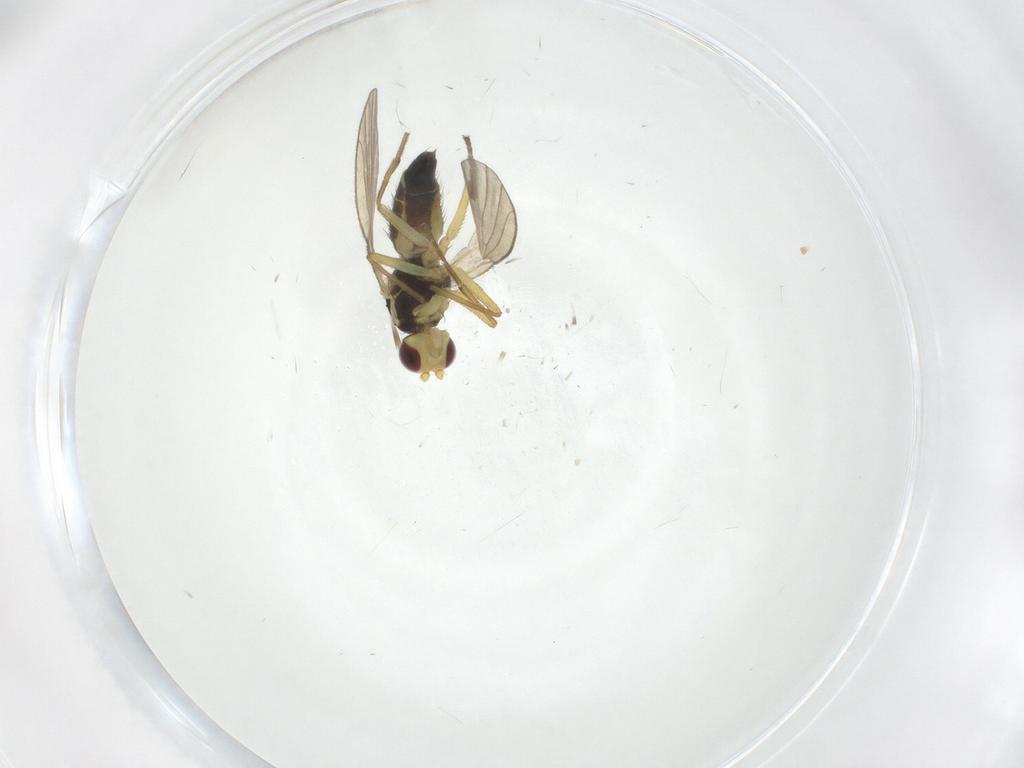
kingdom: Animalia
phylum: Arthropoda
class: Insecta
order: Diptera
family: Agromyzidae
